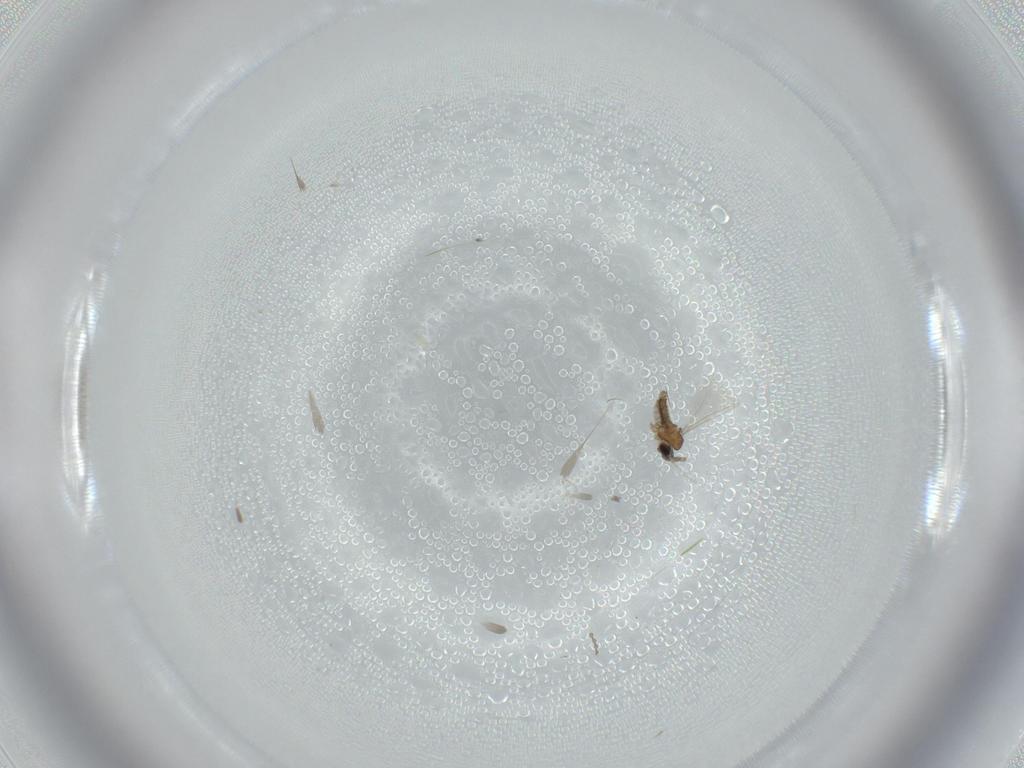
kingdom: Animalia
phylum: Arthropoda
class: Insecta
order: Diptera
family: Cecidomyiidae
